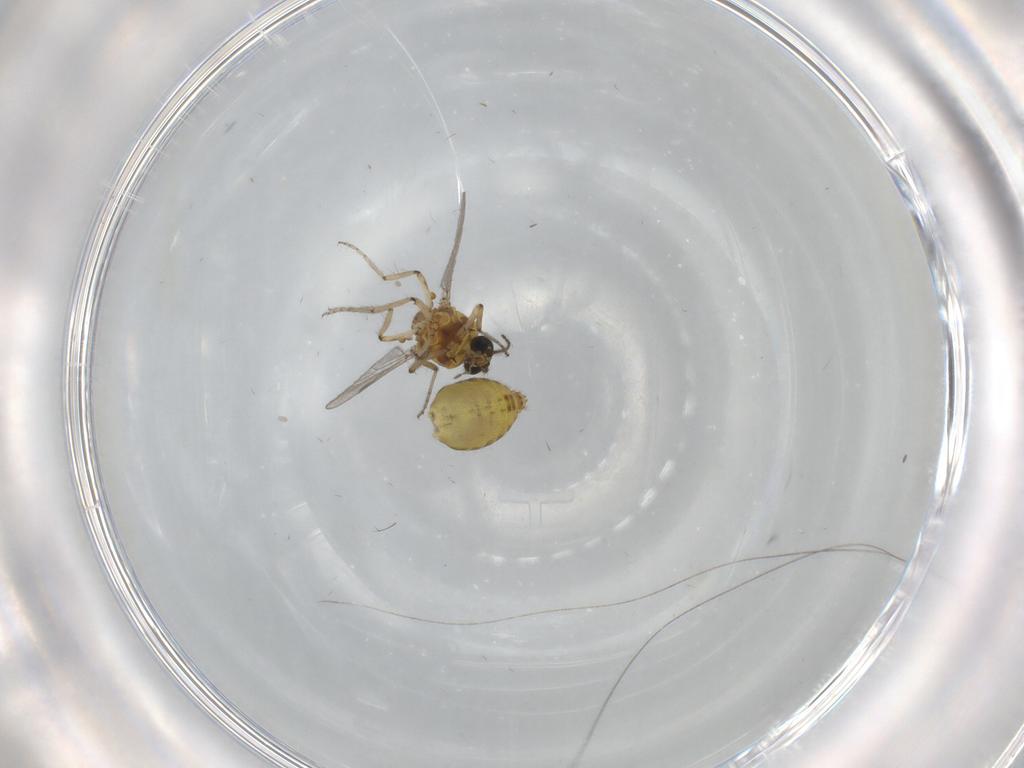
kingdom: Animalia
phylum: Arthropoda
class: Insecta
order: Diptera
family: Ceratopogonidae
